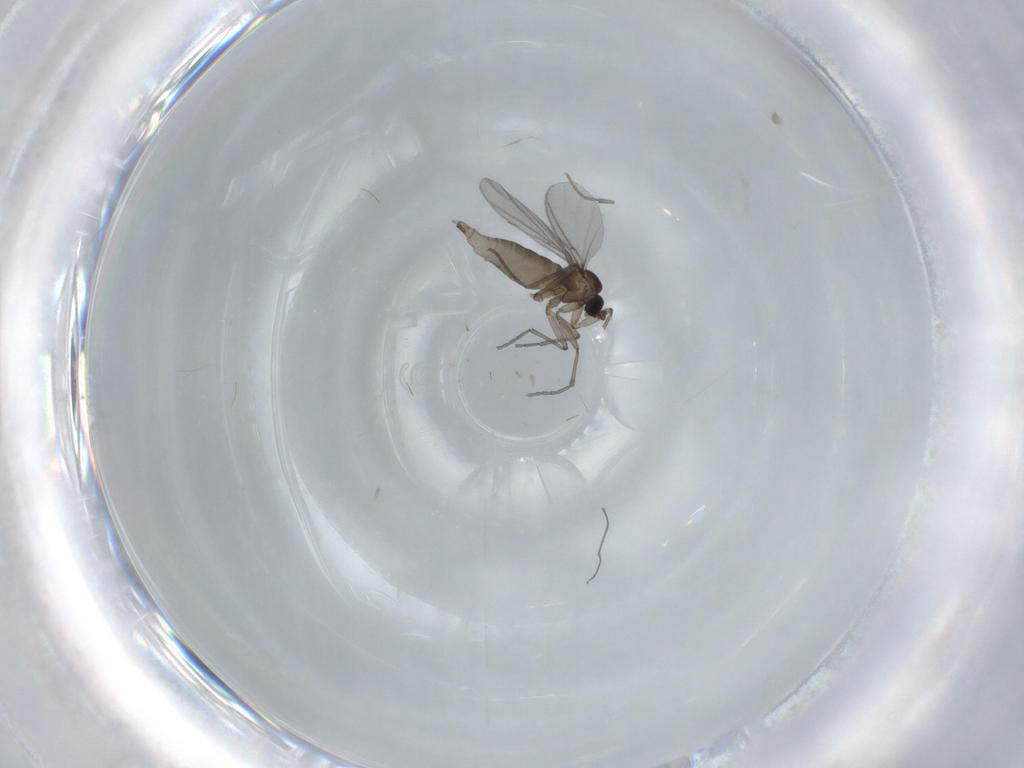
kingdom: Animalia
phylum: Arthropoda
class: Insecta
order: Diptera
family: Sciaridae
